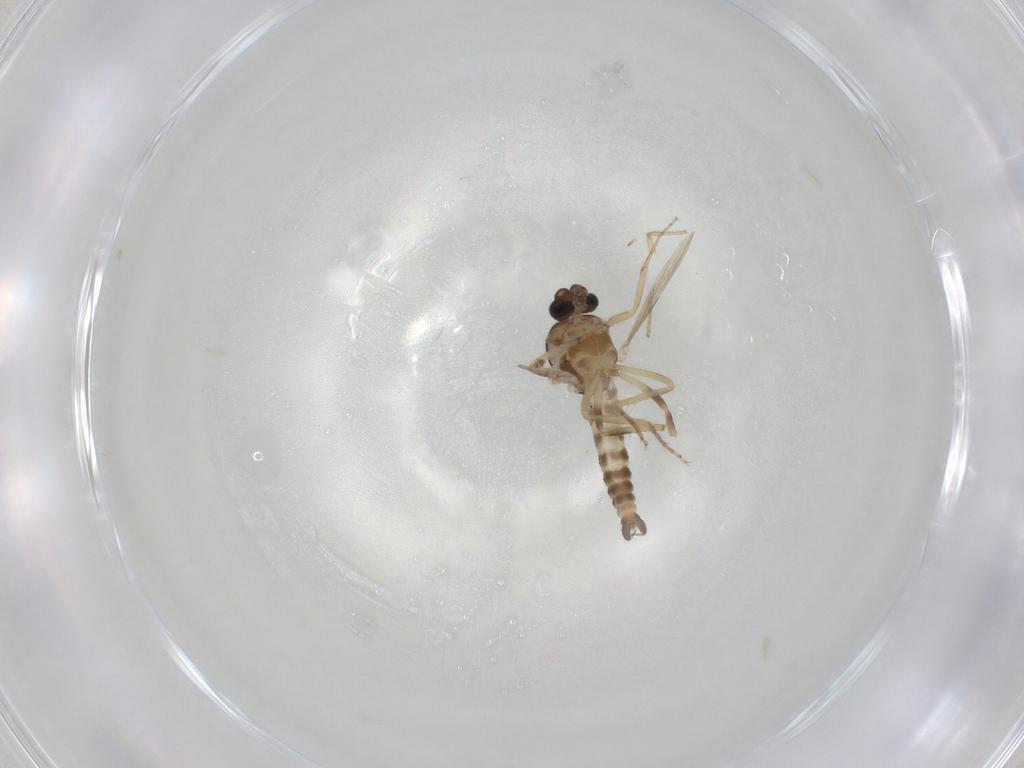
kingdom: Animalia
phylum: Arthropoda
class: Insecta
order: Diptera
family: Ceratopogonidae
